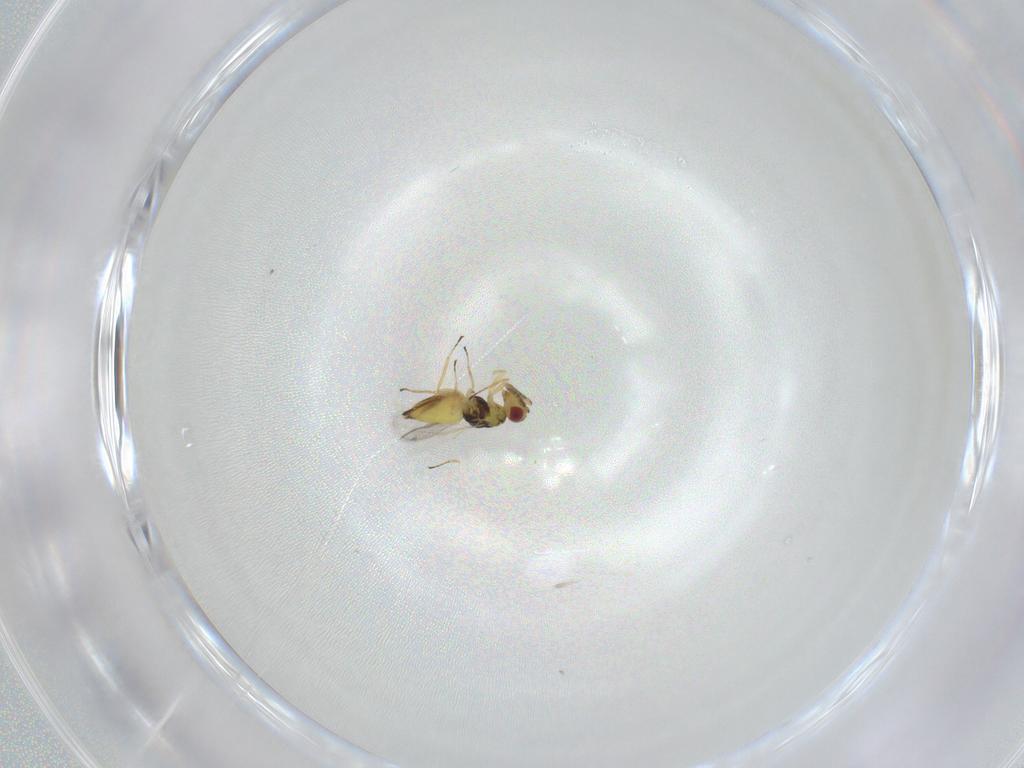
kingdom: Animalia
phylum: Arthropoda
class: Insecta
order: Hymenoptera
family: Eulophidae
